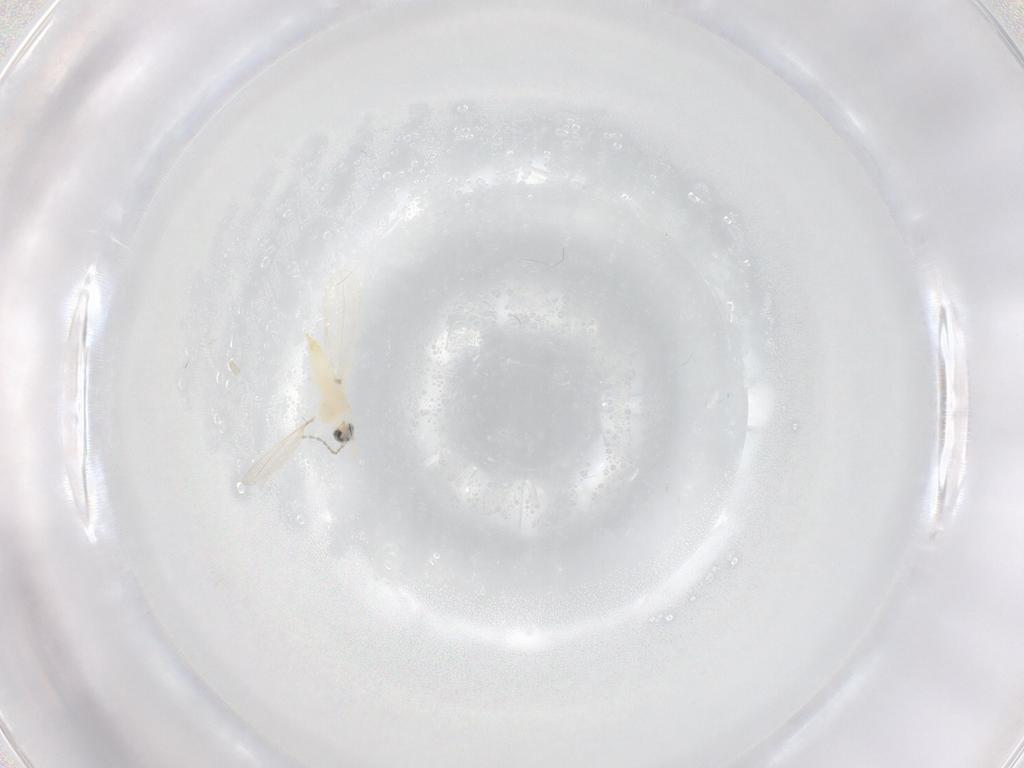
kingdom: Animalia
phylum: Arthropoda
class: Insecta
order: Diptera
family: Cecidomyiidae
